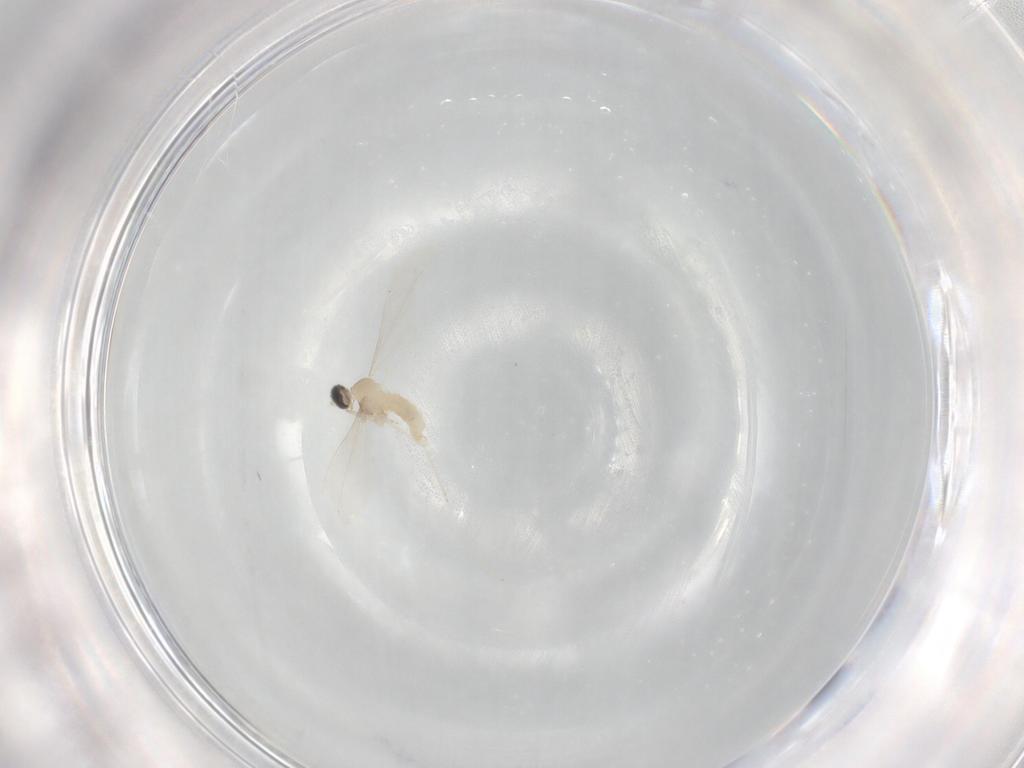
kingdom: Animalia
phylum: Arthropoda
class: Insecta
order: Diptera
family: Cecidomyiidae
